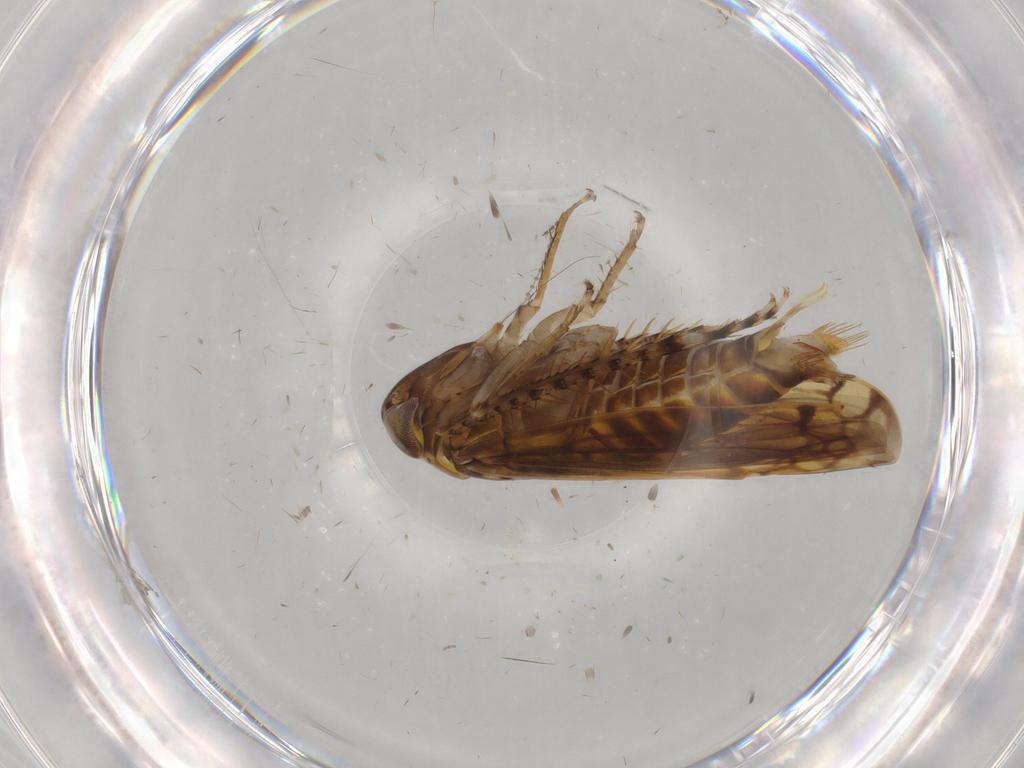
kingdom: Animalia
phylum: Arthropoda
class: Insecta
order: Hemiptera
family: Cicadellidae
